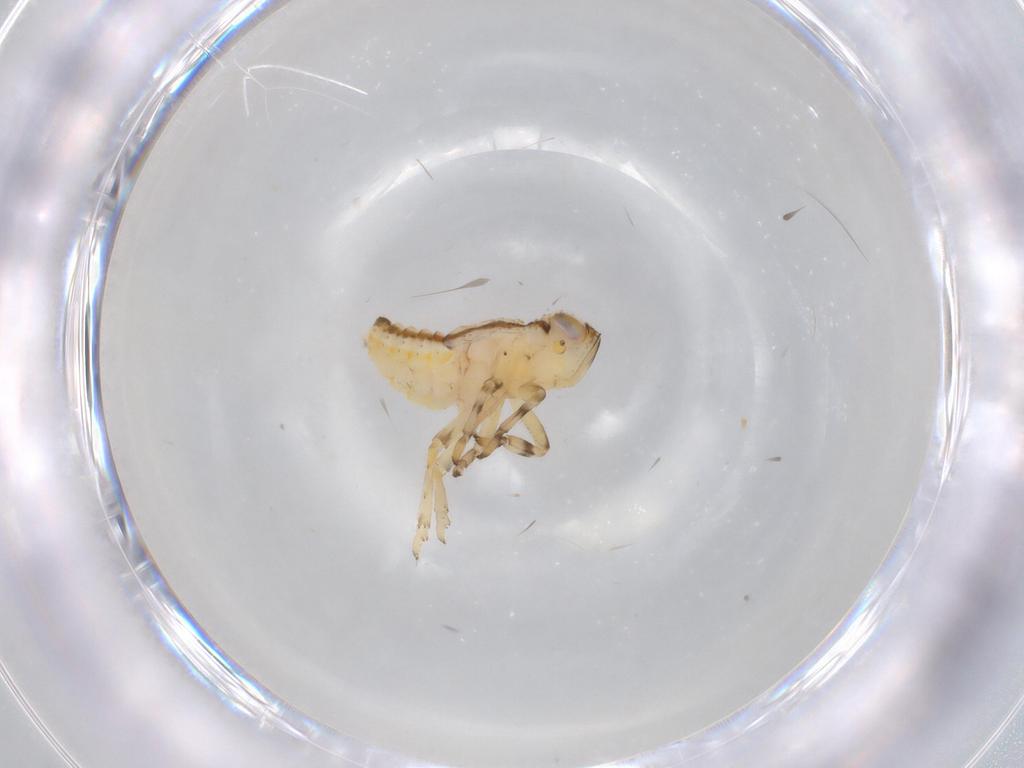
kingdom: Animalia
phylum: Arthropoda
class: Insecta
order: Hemiptera
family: Issidae
